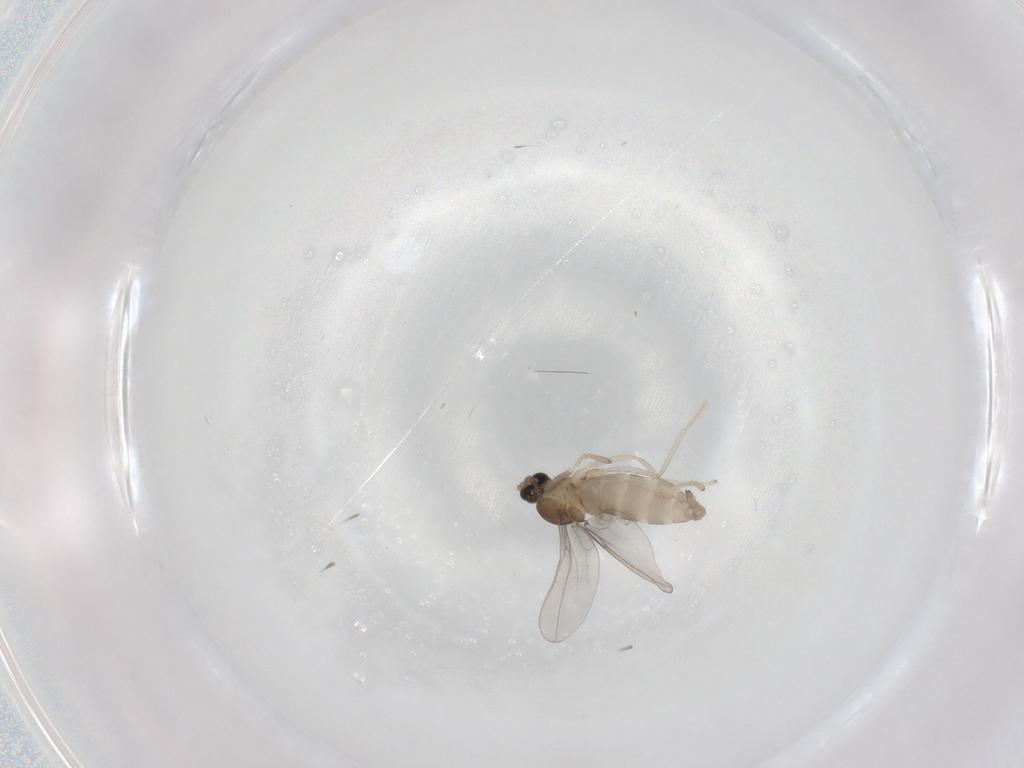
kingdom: Animalia
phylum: Arthropoda
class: Insecta
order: Diptera
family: Cecidomyiidae
